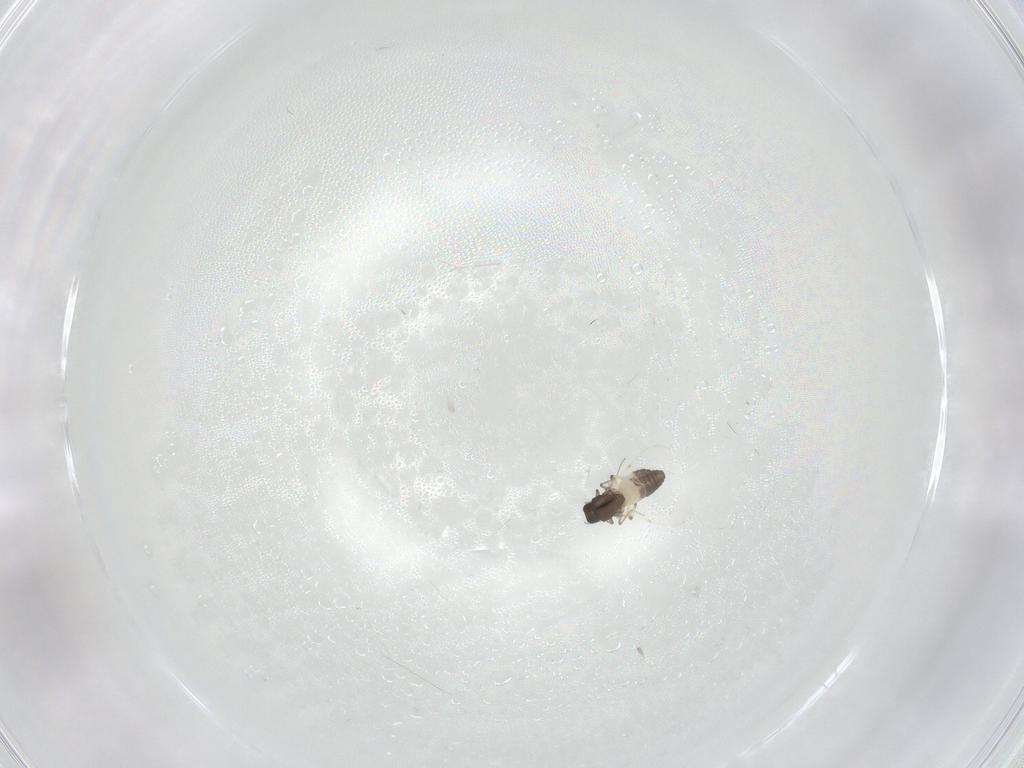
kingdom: Animalia
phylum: Arthropoda
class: Insecta
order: Diptera
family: Ceratopogonidae
